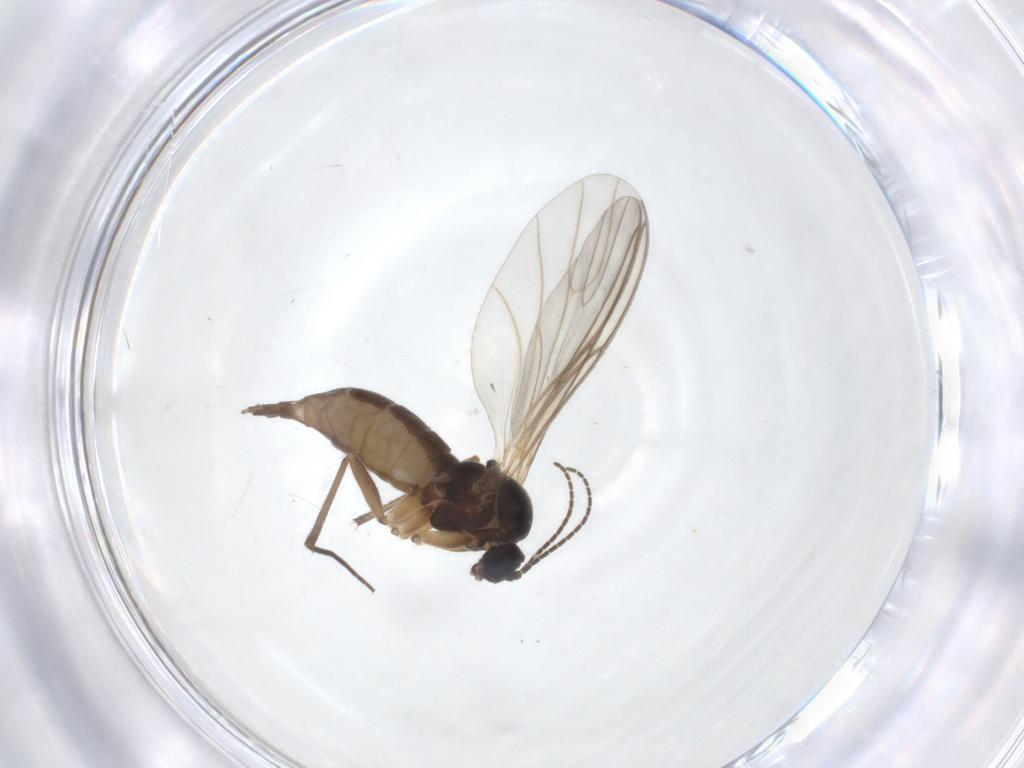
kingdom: Animalia
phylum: Arthropoda
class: Insecta
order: Diptera
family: Sciaridae
